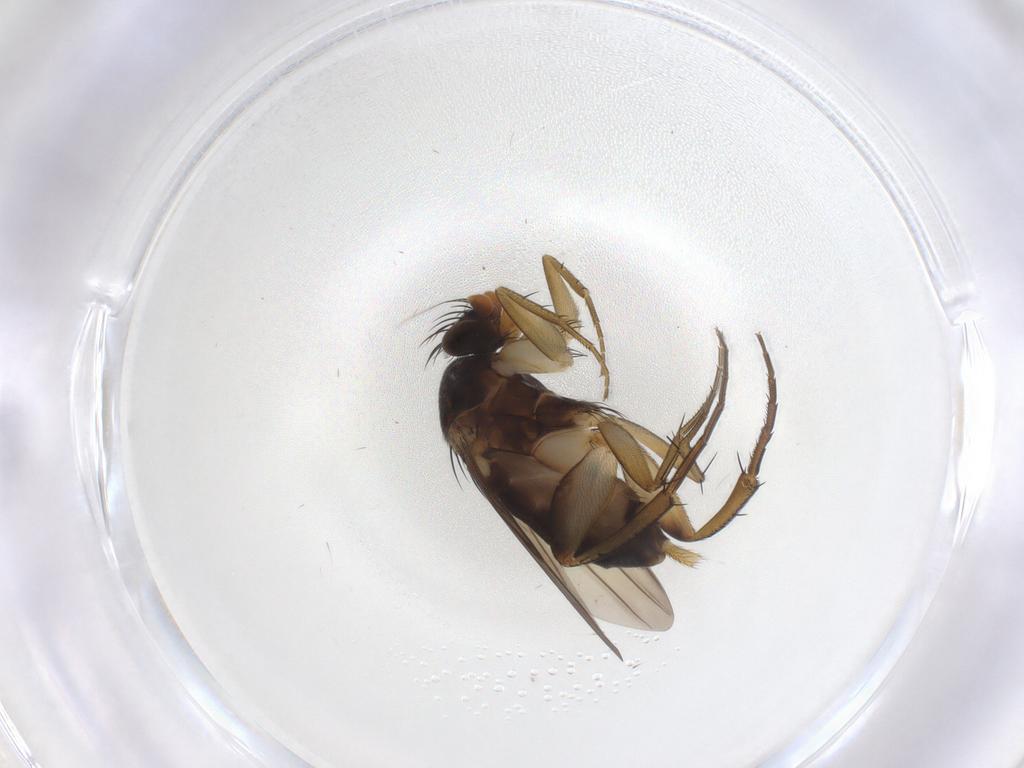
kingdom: Animalia
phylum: Arthropoda
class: Insecta
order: Diptera
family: Phoridae
